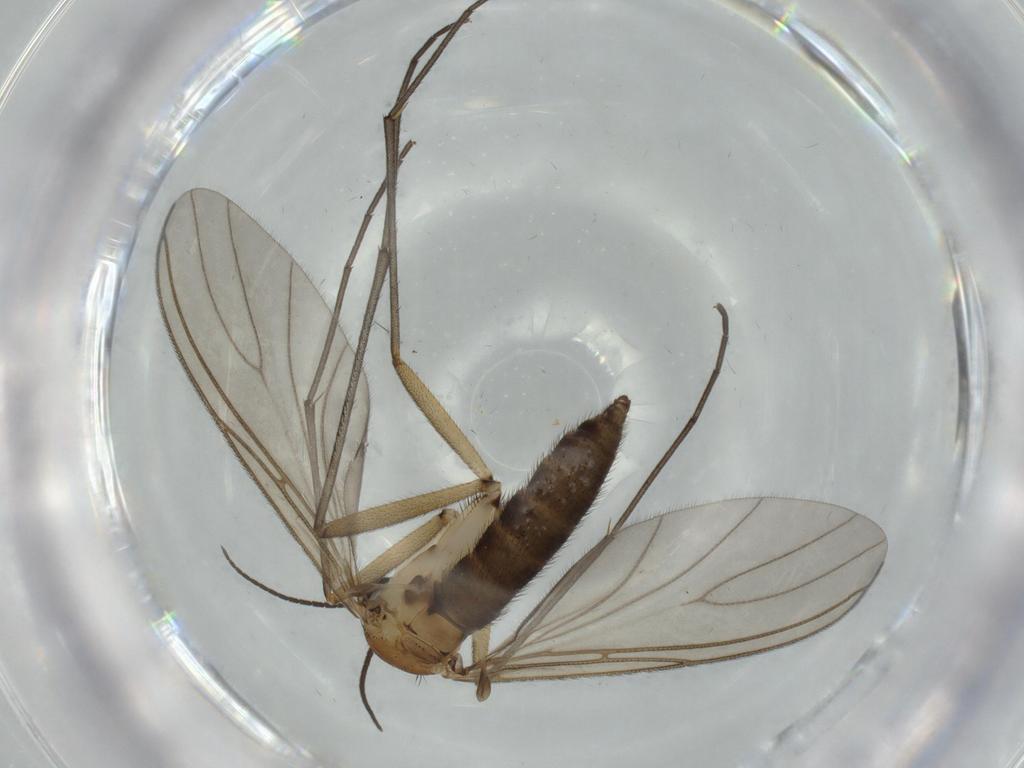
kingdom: Animalia
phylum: Arthropoda
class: Insecta
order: Diptera
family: Sciaridae
